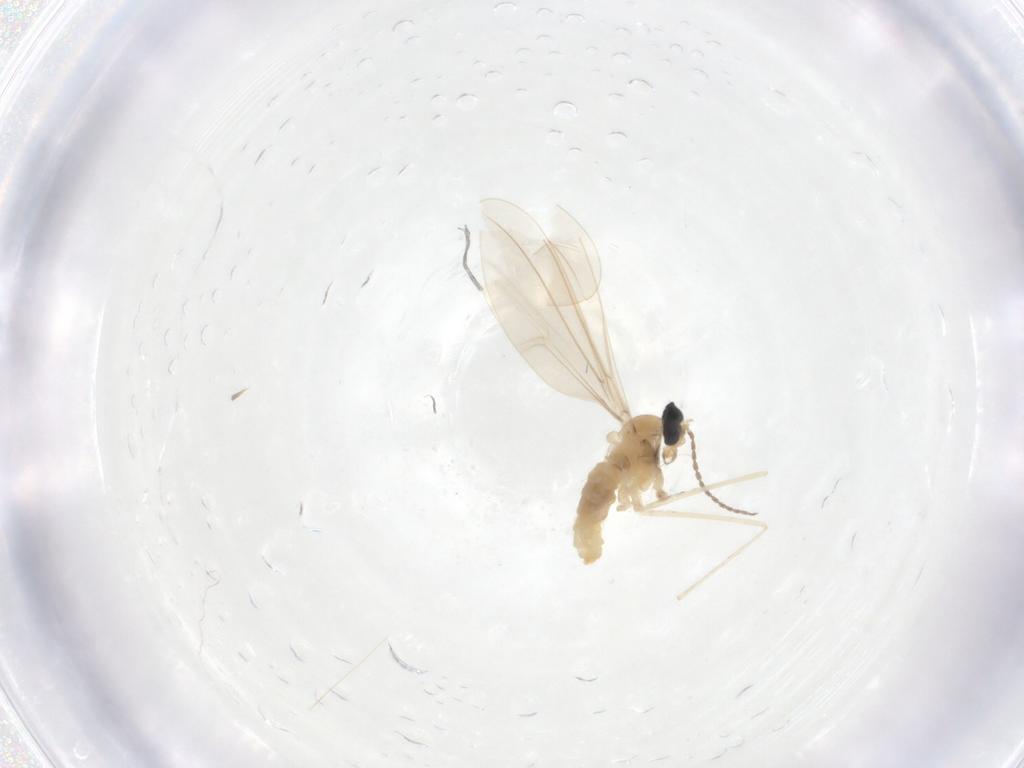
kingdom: Animalia
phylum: Arthropoda
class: Insecta
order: Diptera
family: Cecidomyiidae
